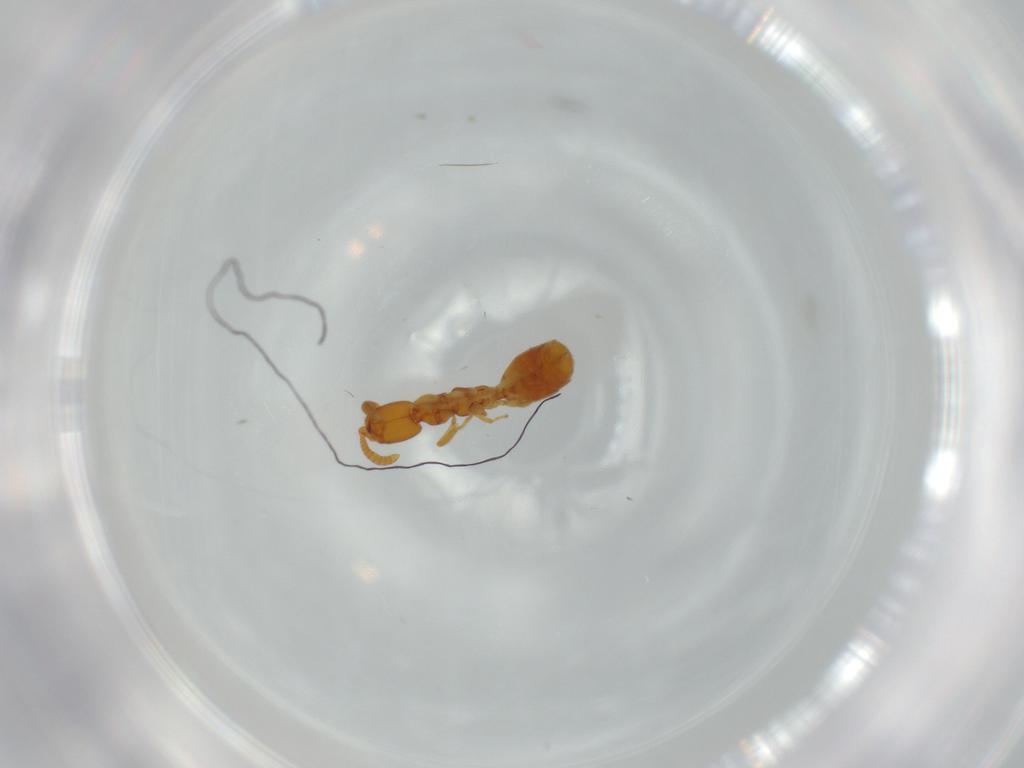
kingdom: Animalia
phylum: Arthropoda
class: Insecta
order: Hymenoptera
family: Bethylidae
